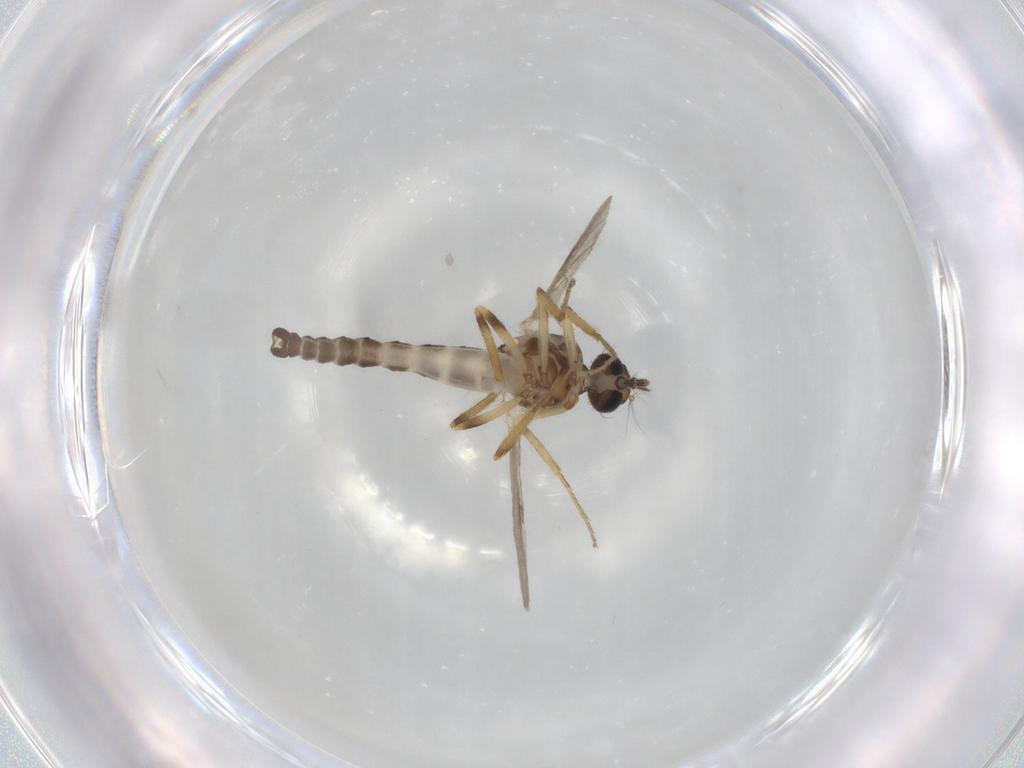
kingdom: Animalia
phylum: Arthropoda
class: Insecta
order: Diptera
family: Ceratopogonidae
